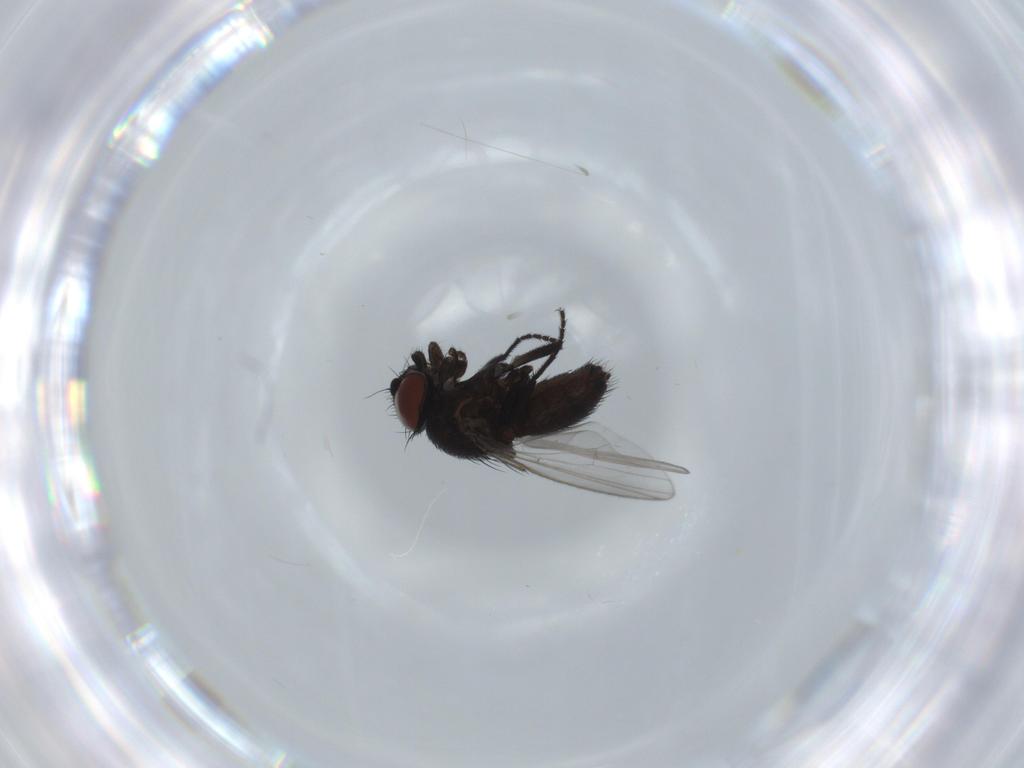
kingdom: Animalia
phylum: Arthropoda
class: Insecta
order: Diptera
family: Milichiidae
